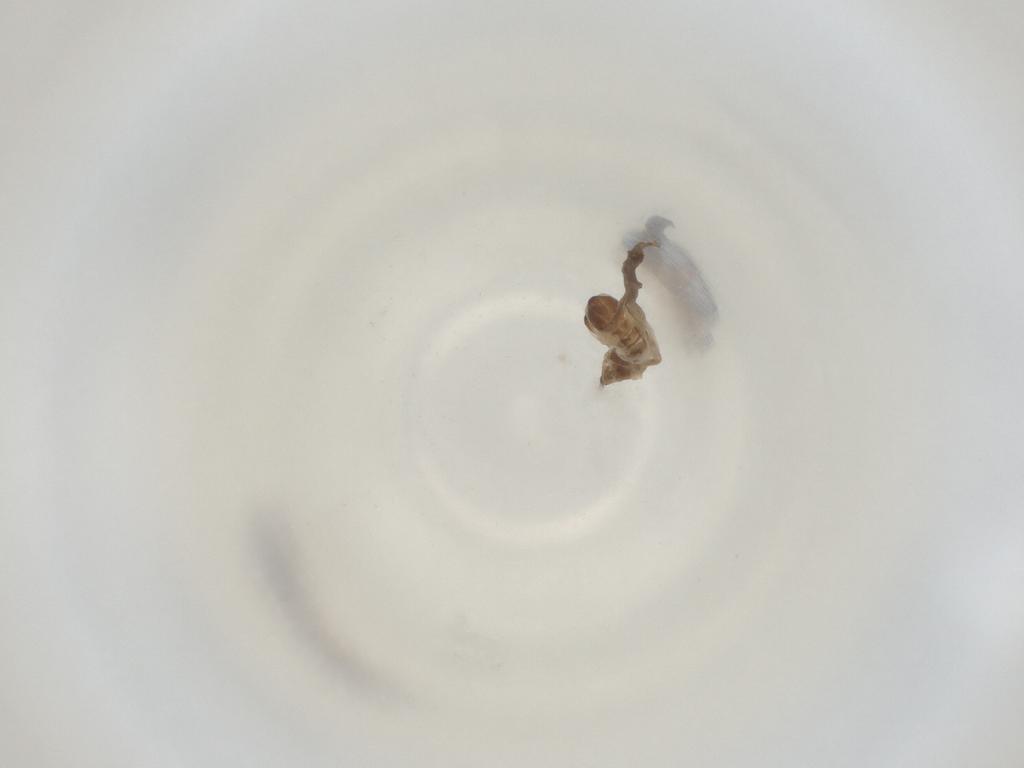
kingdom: Animalia
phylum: Arthropoda
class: Insecta
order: Diptera
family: Cecidomyiidae
